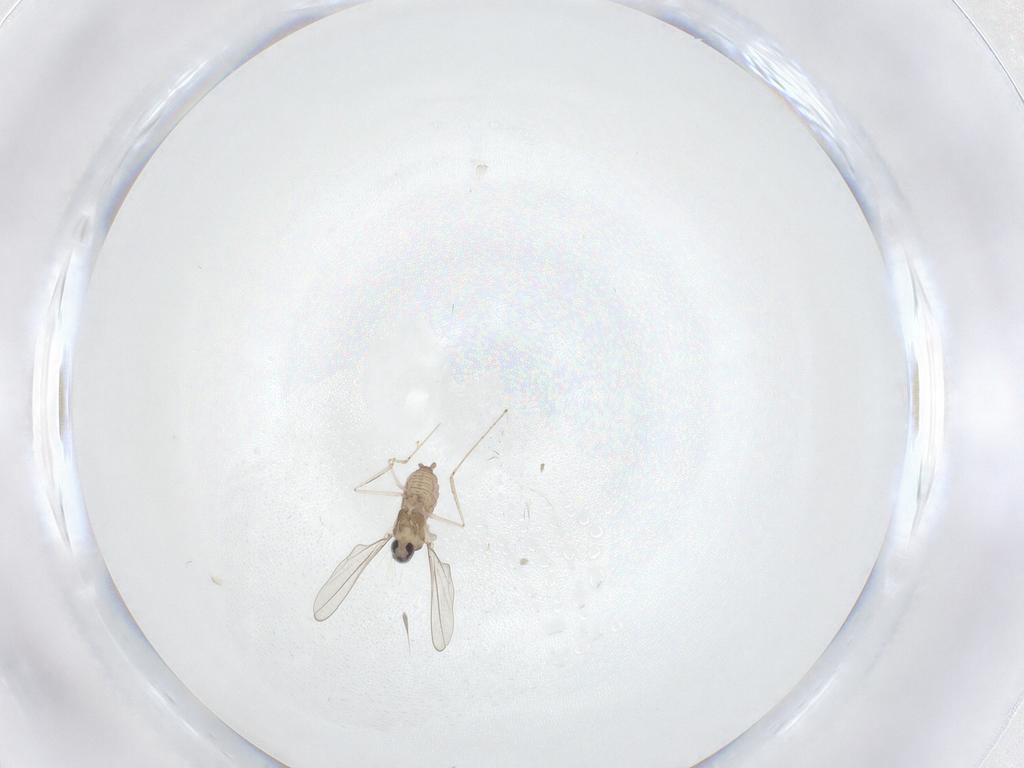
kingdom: Animalia
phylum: Arthropoda
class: Insecta
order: Diptera
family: Cecidomyiidae
